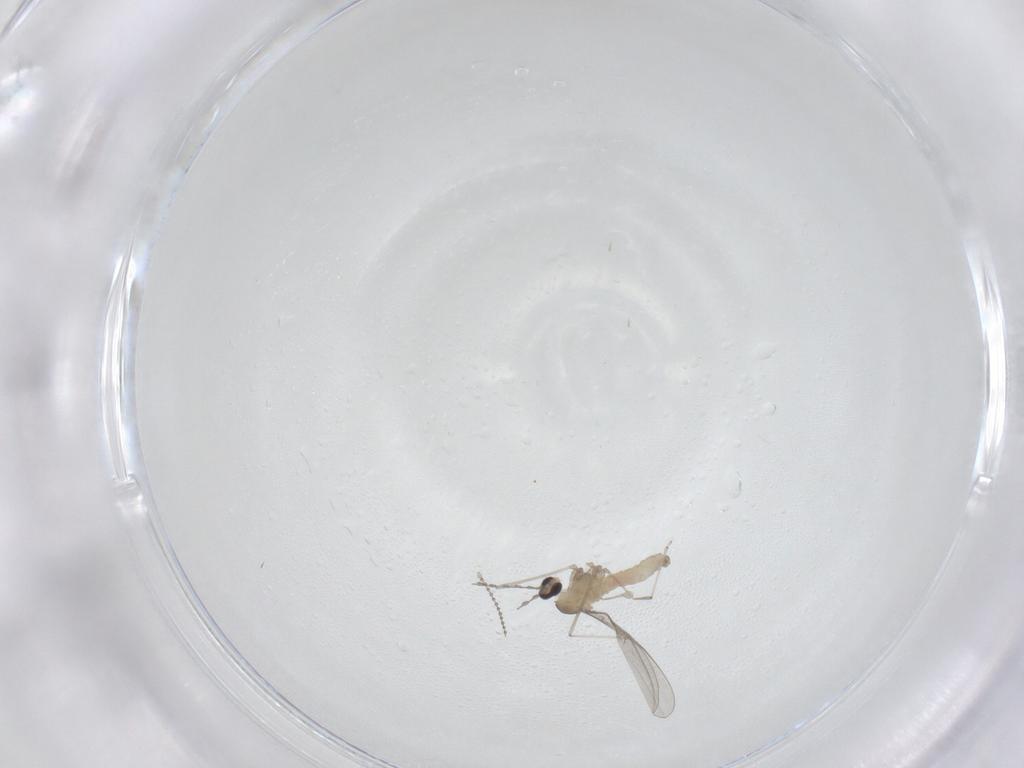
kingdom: Animalia
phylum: Arthropoda
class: Insecta
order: Diptera
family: Cecidomyiidae
